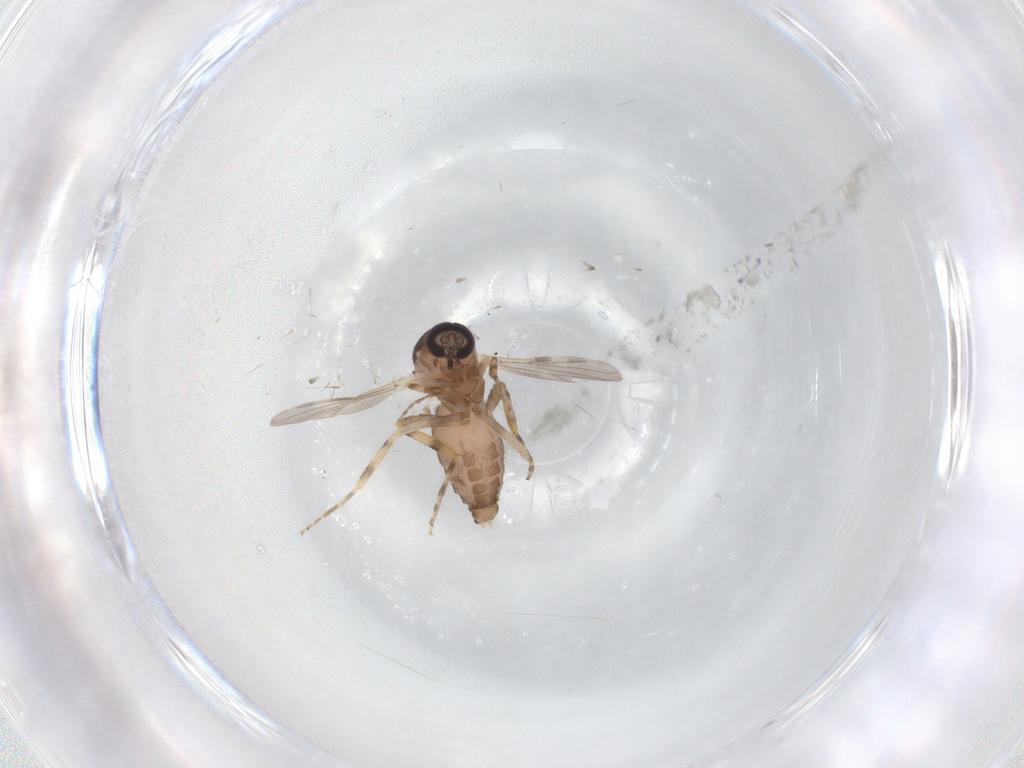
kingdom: Animalia
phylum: Arthropoda
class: Insecta
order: Diptera
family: Ceratopogonidae
